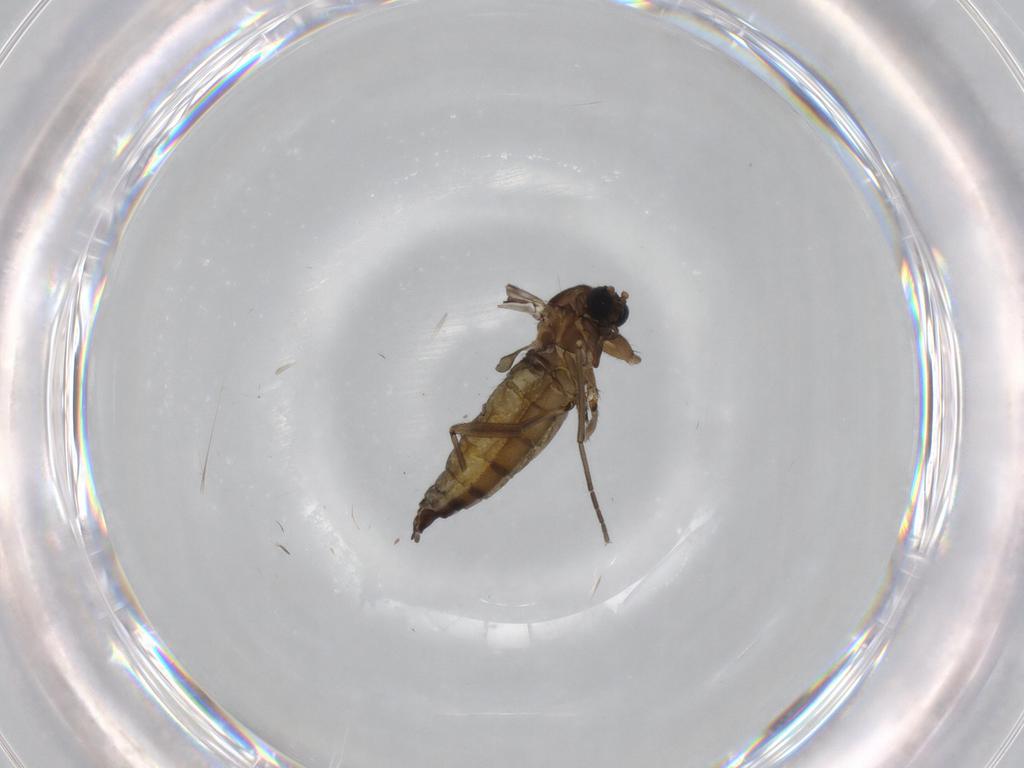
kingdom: Animalia
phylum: Arthropoda
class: Insecta
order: Diptera
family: Sciaridae
